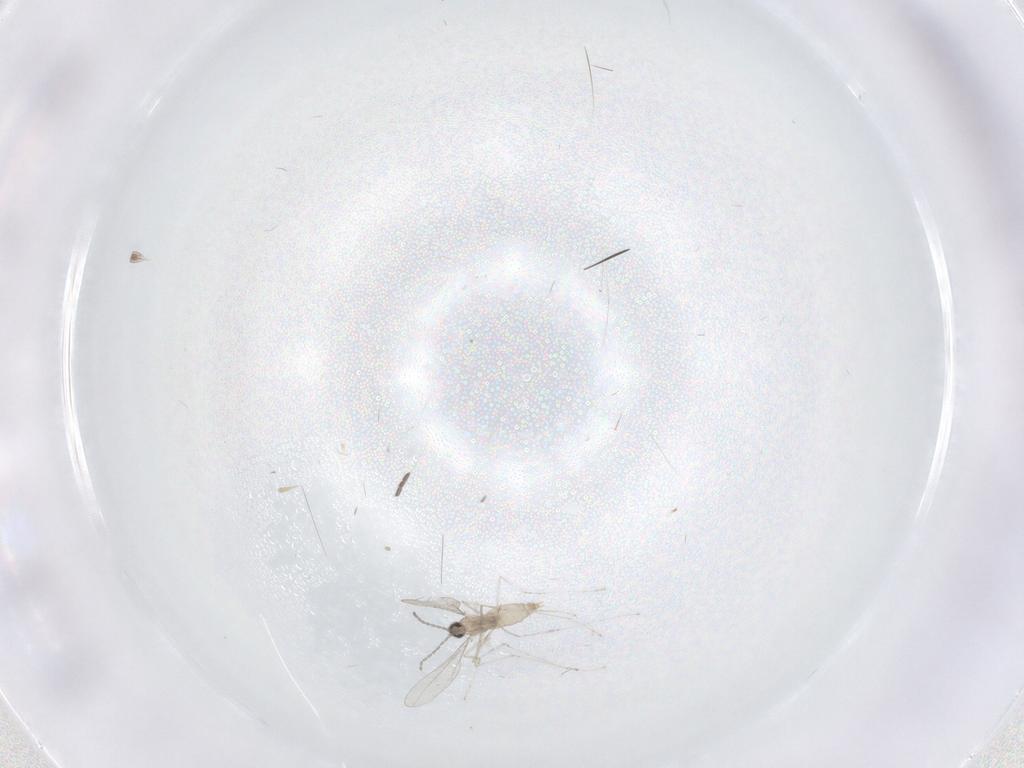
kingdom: Animalia
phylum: Arthropoda
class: Insecta
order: Diptera
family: Cecidomyiidae
